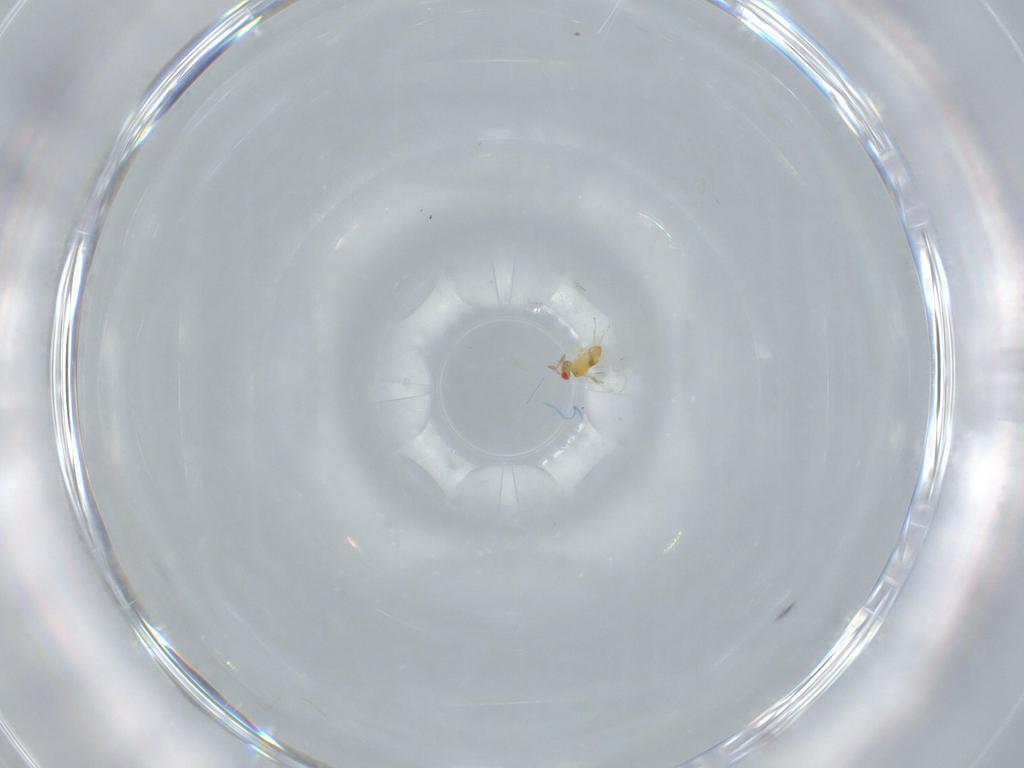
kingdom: Animalia
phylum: Arthropoda
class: Insecta
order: Hymenoptera
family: Trichogrammatidae
